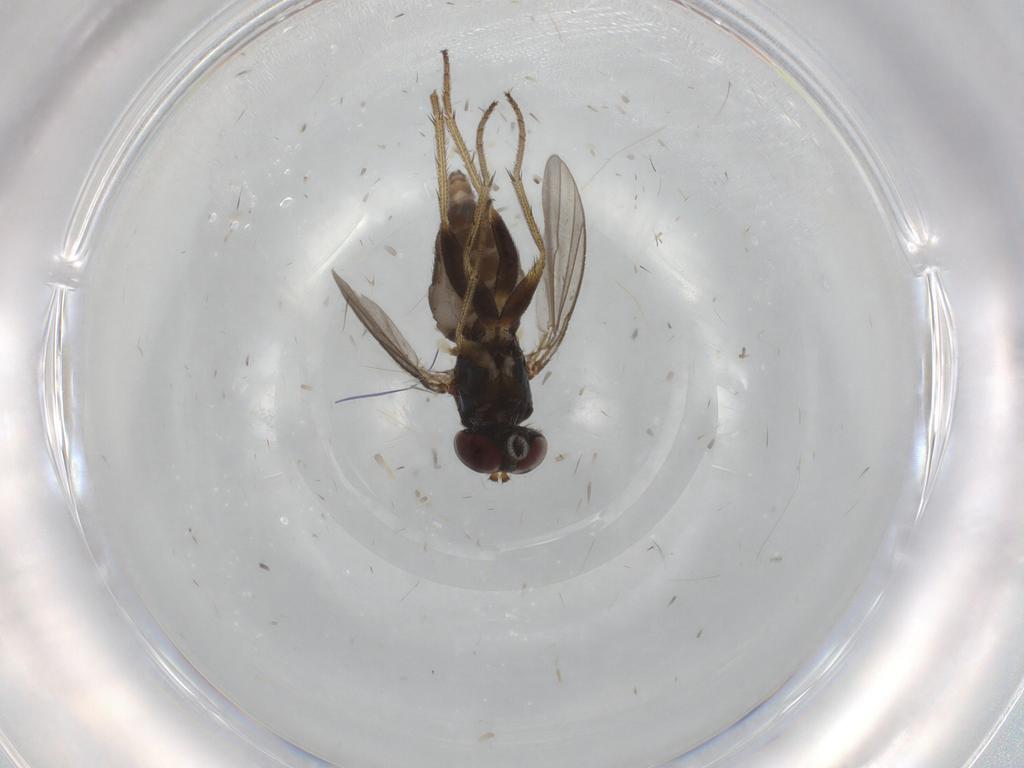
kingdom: Animalia
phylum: Arthropoda
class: Insecta
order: Diptera
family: Dolichopodidae
